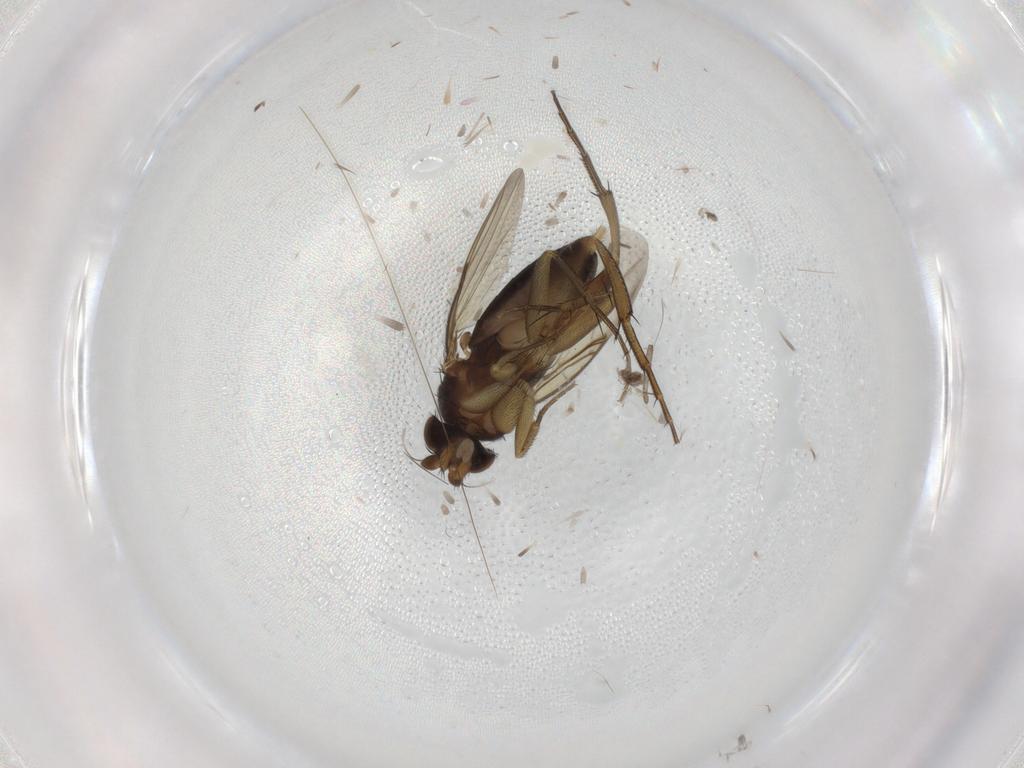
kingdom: Animalia
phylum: Arthropoda
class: Insecta
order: Diptera
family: Phoridae
